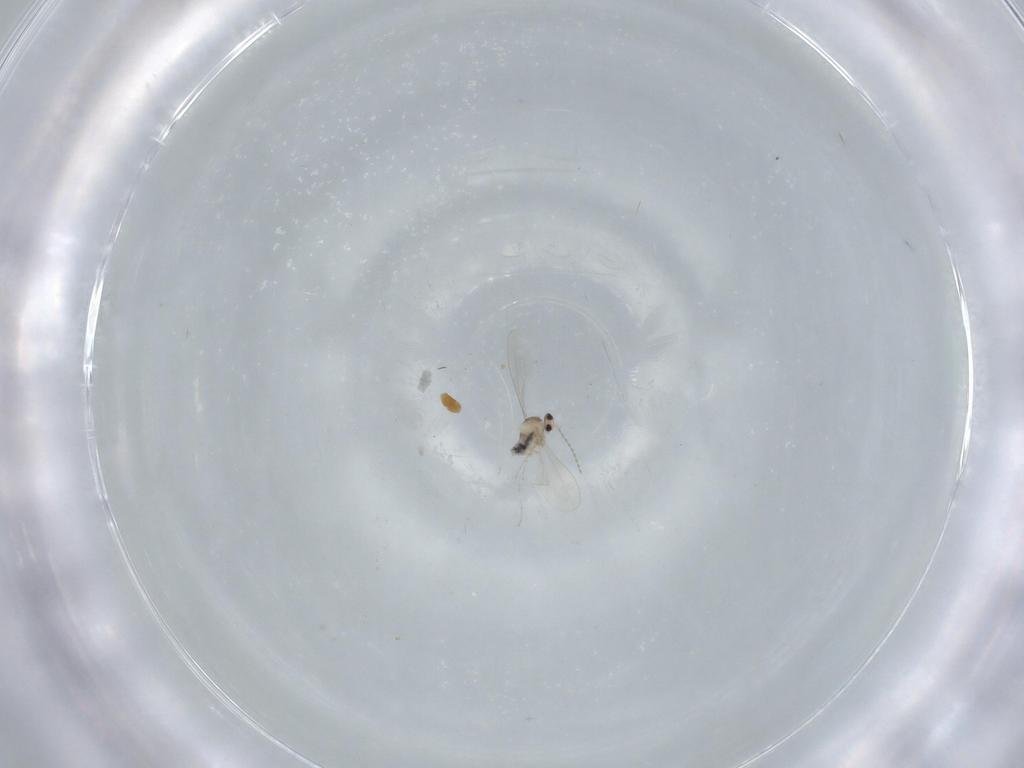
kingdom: Animalia
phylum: Arthropoda
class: Insecta
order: Diptera
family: Cecidomyiidae
